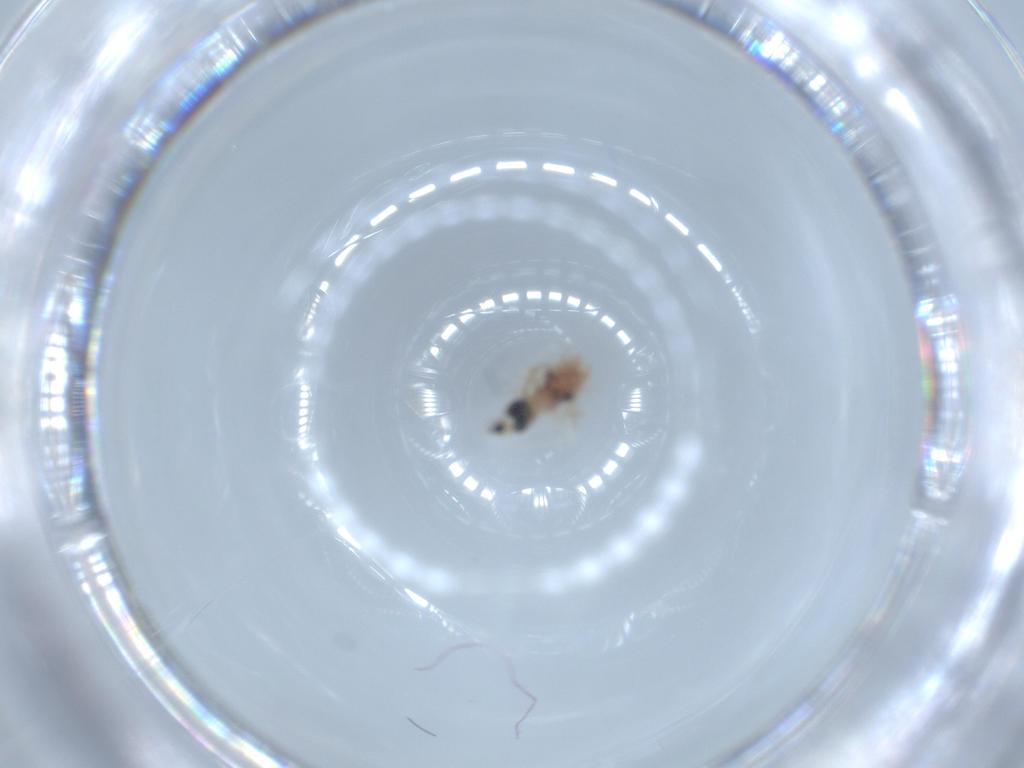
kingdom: Animalia
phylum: Arthropoda
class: Insecta
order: Psocodea
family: Caeciliusidae
